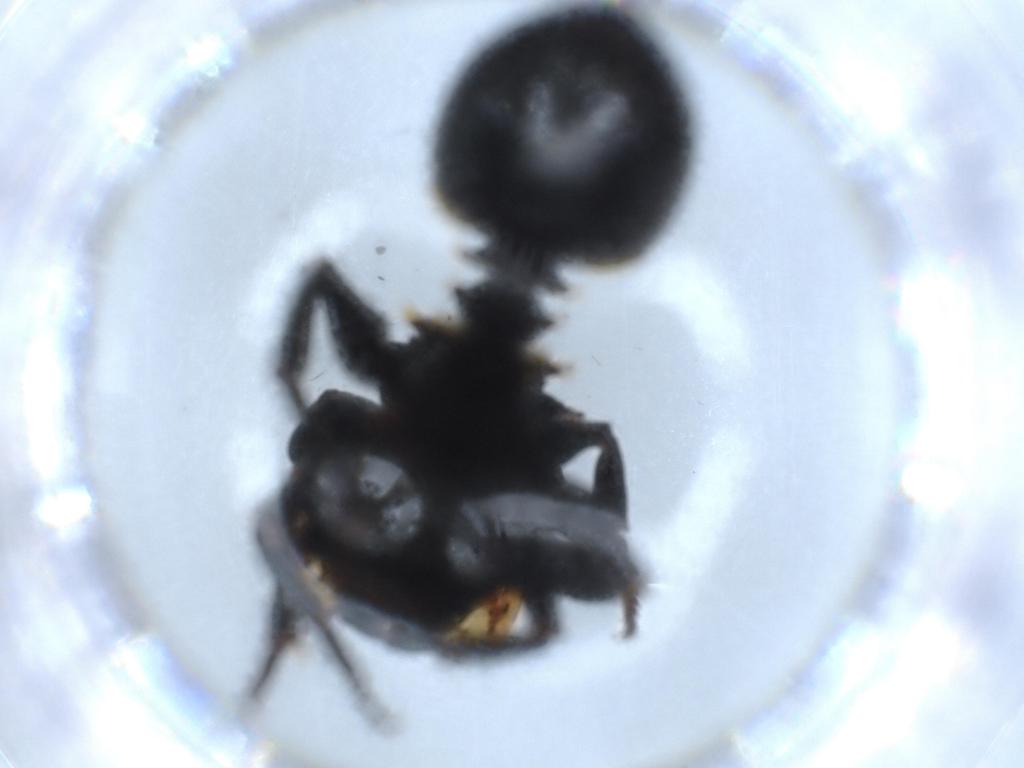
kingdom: Animalia
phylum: Arthropoda
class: Insecta
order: Hymenoptera
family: Formicidae
